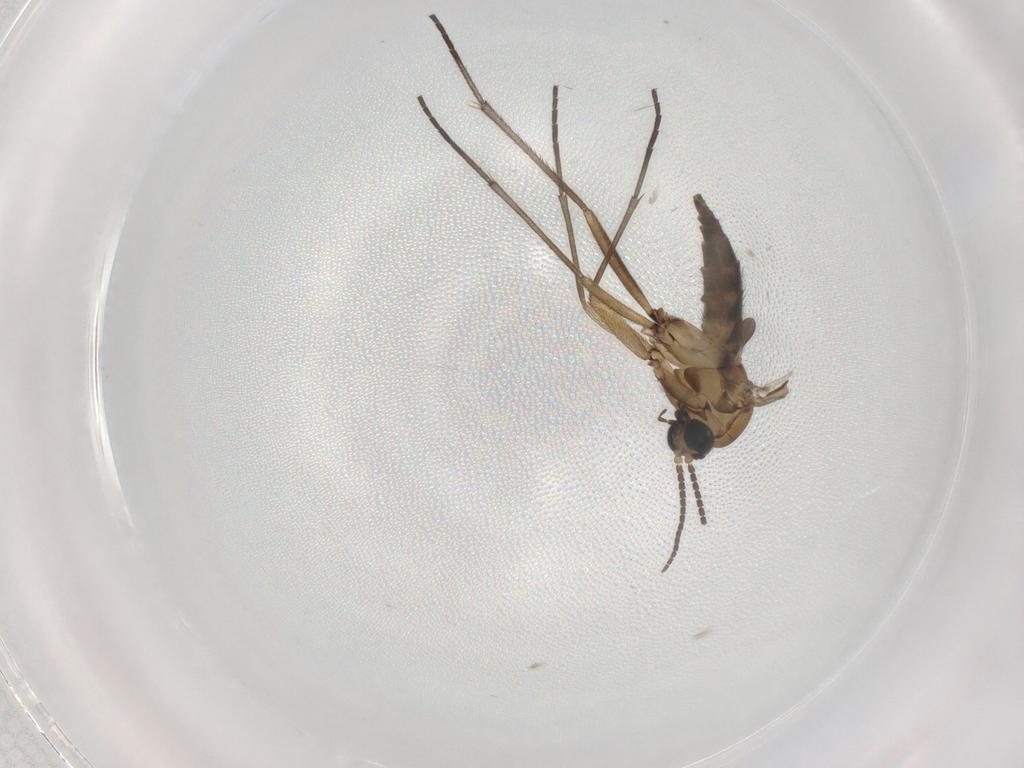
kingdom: Animalia
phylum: Arthropoda
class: Insecta
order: Diptera
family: Sciaridae
